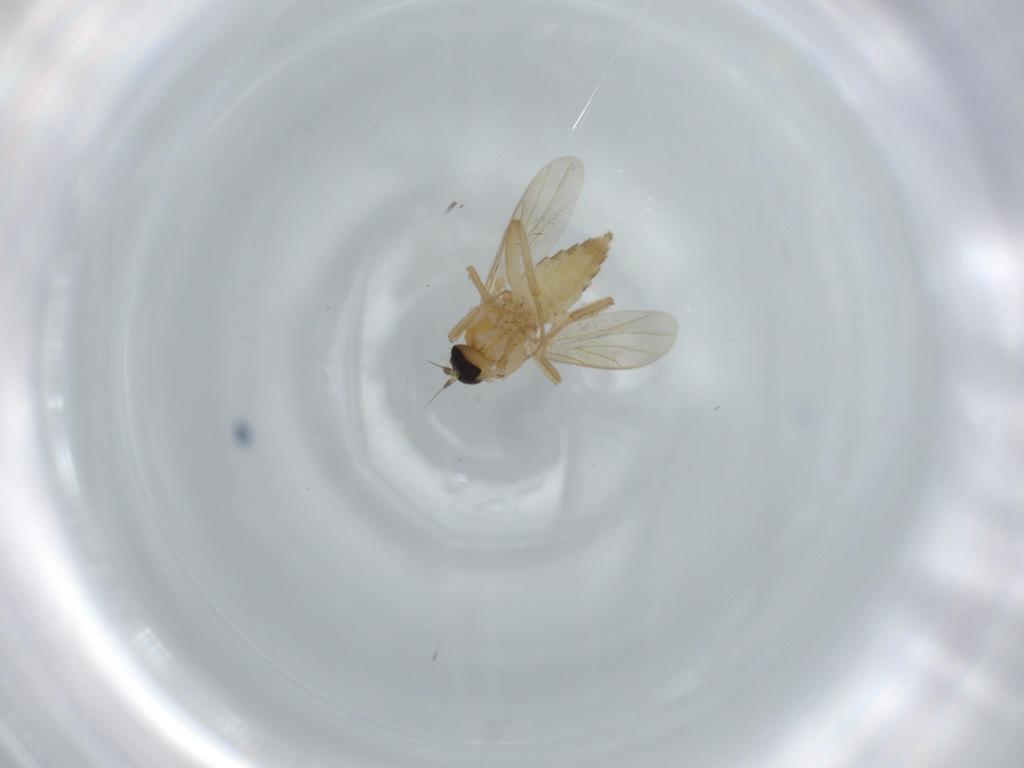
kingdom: Animalia
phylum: Arthropoda
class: Insecta
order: Diptera
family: Hybotidae
